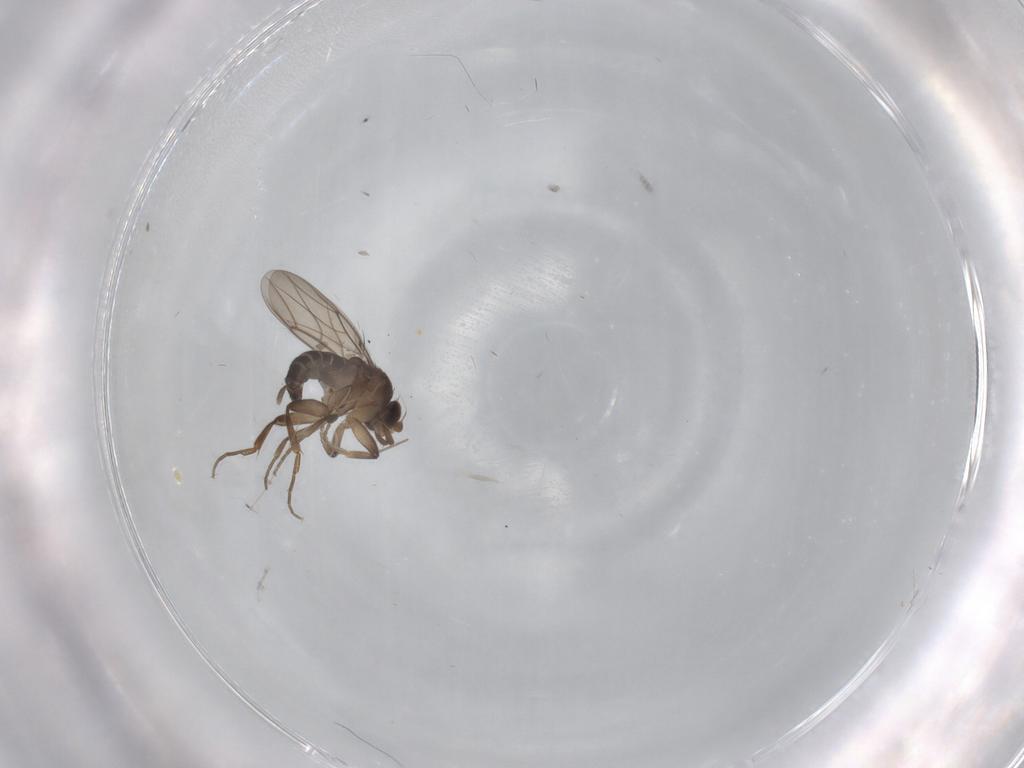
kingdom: Animalia
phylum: Arthropoda
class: Insecta
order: Diptera
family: Phoridae
